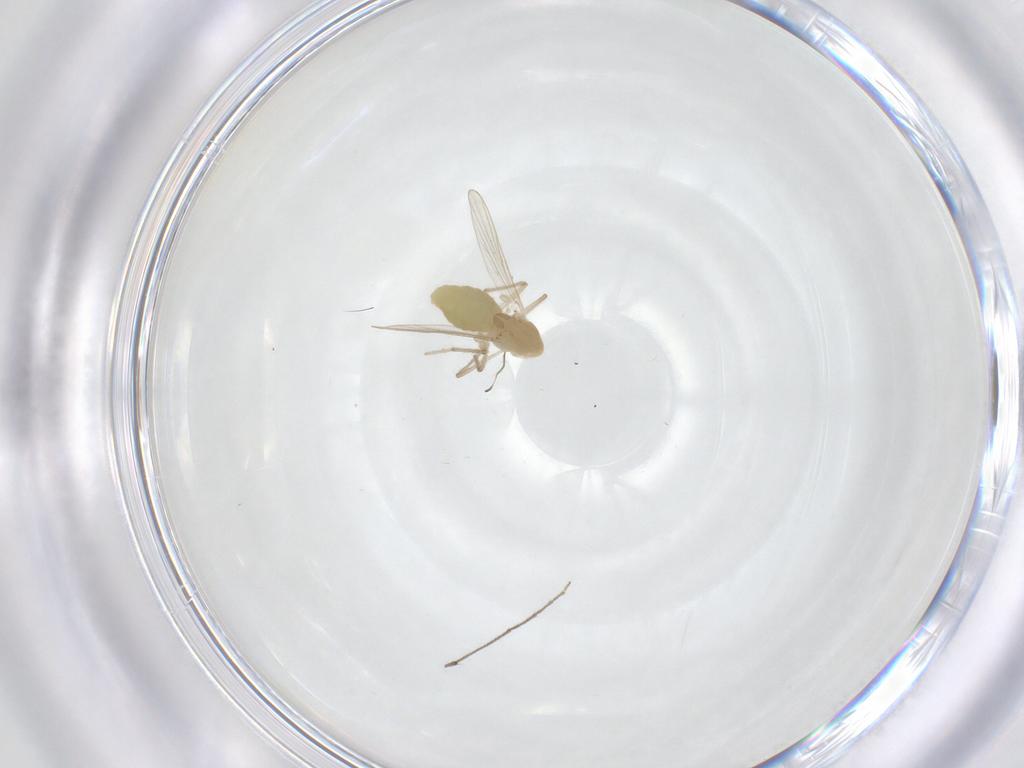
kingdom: Animalia
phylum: Arthropoda
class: Insecta
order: Diptera
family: Chironomidae
